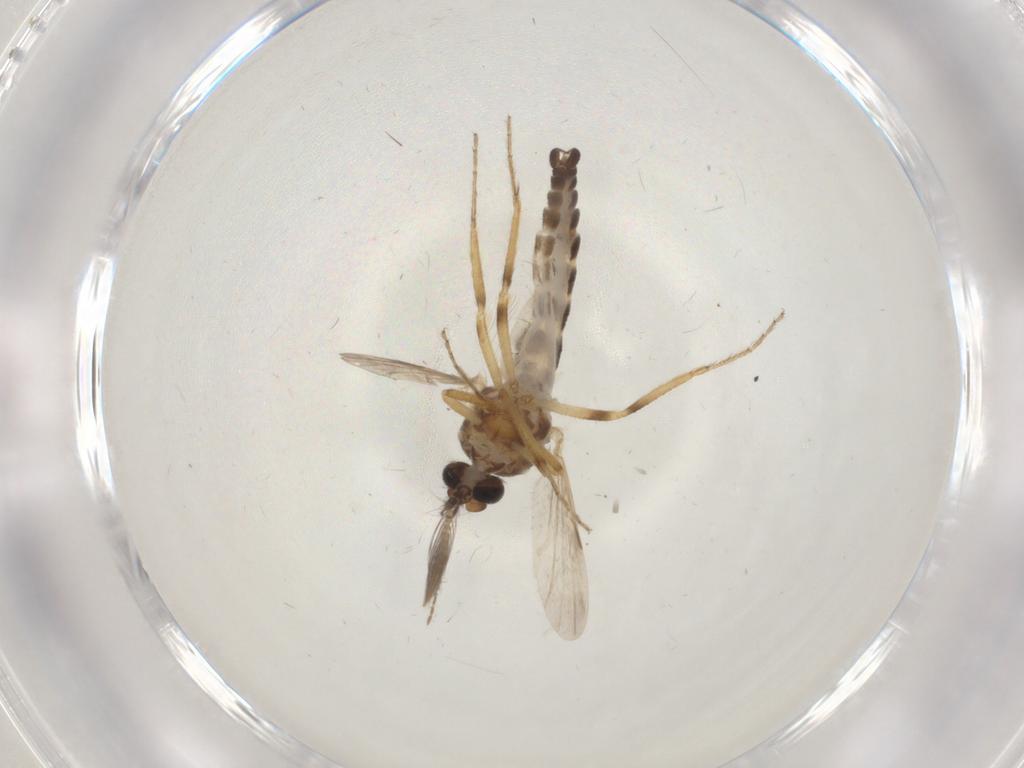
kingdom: Animalia
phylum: Arthropoda
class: Insecta
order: Diptera
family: Ceratopogonidae
